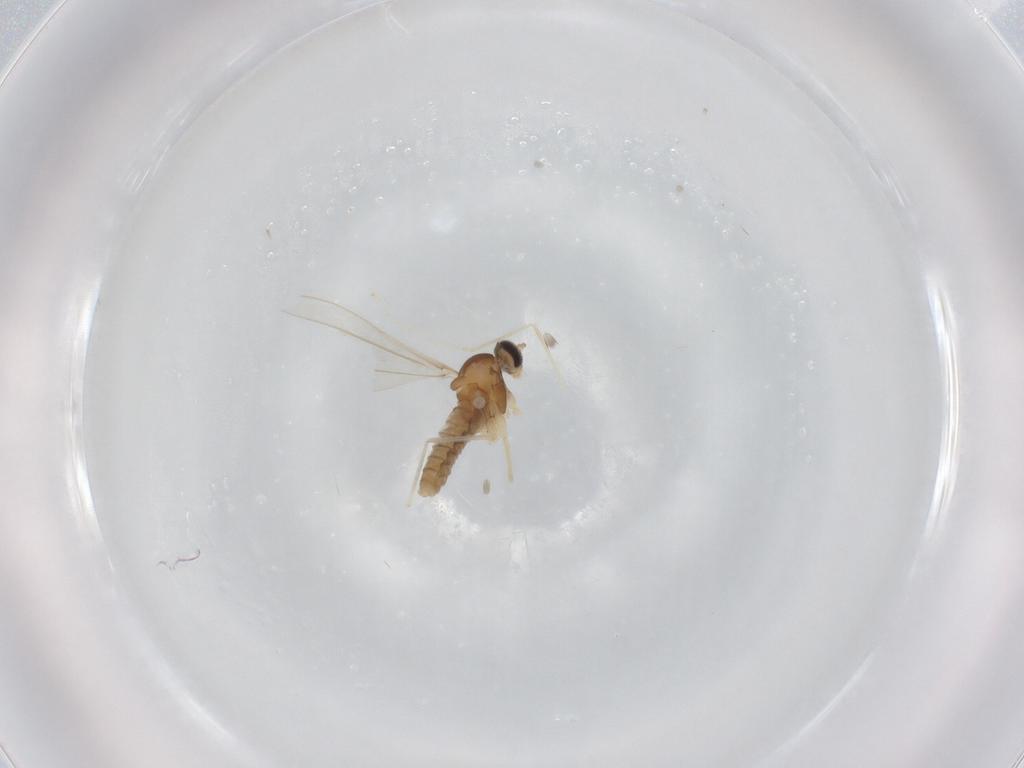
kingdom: Animalia
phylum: Arthropoda
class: Insecta
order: Diptera
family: Cecidomyiidae
